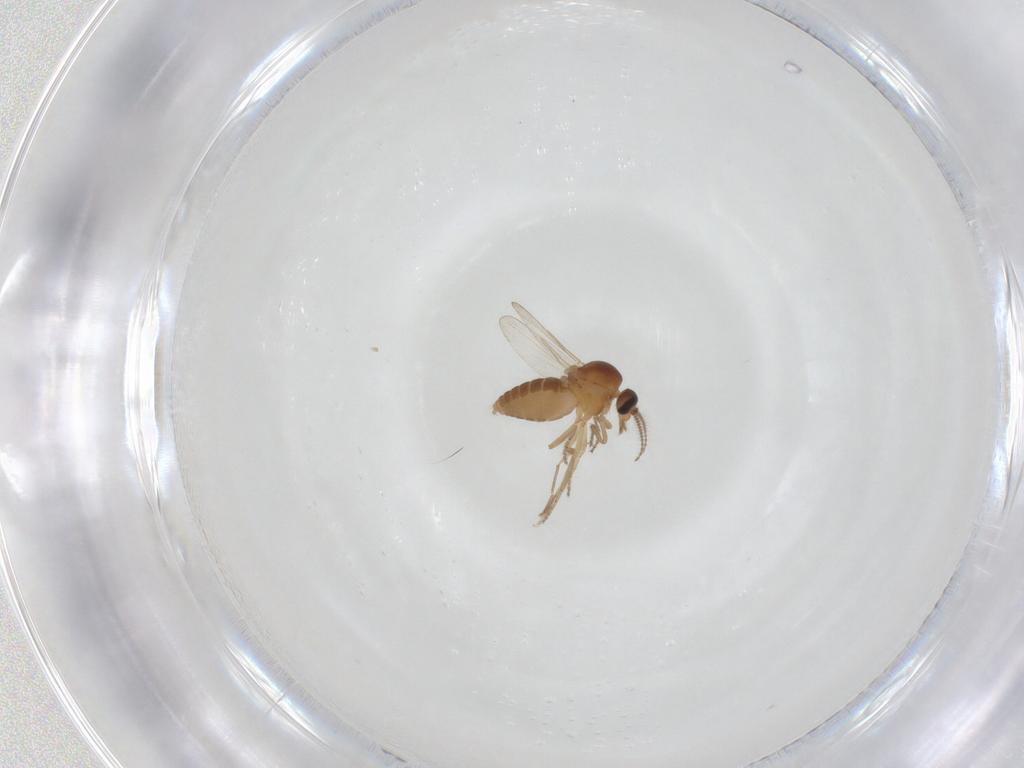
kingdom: Animalia
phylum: Arthropoda
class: Insecta
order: Diptera
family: Ceratopogonidae
